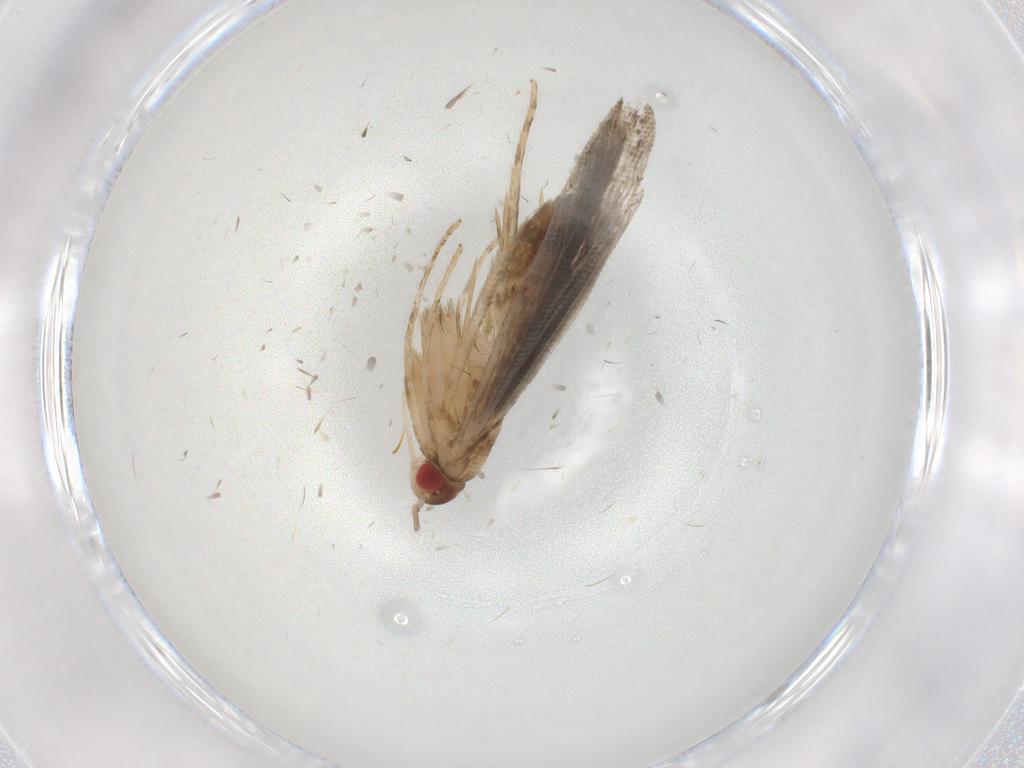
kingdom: Animalia
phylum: Arthropoda
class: Insecta
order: Lepidoptera
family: Gelechiidae
